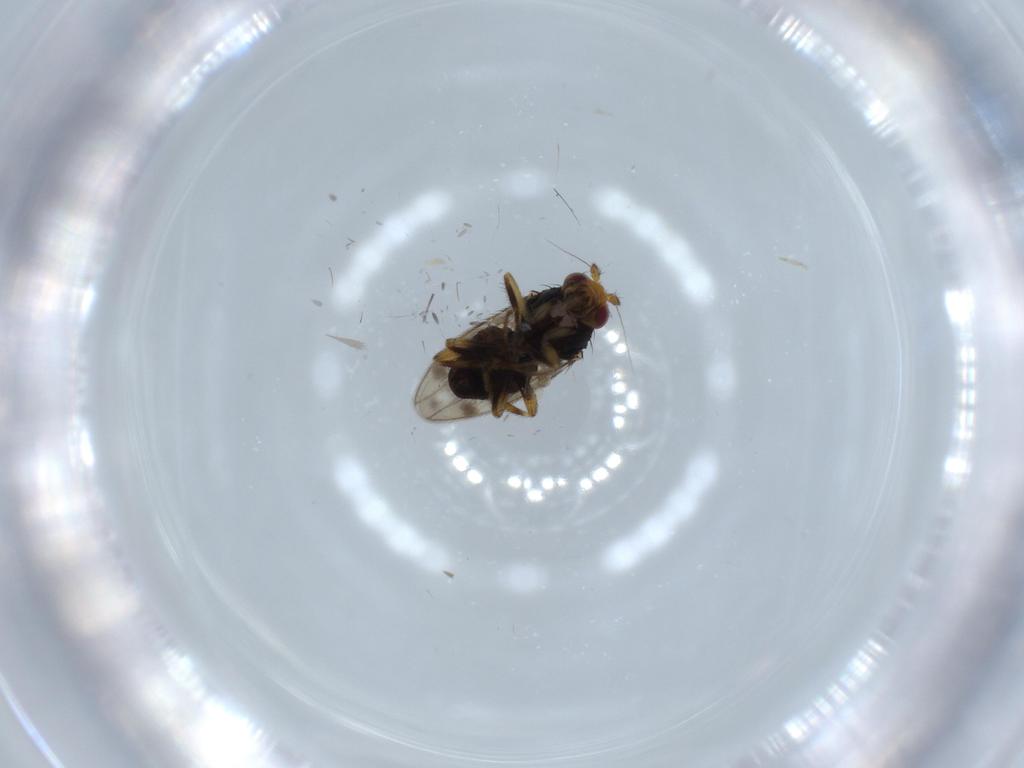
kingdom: Animalia
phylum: Arthropoda
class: Insecta
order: Diptera
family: Sphaeroceridae
